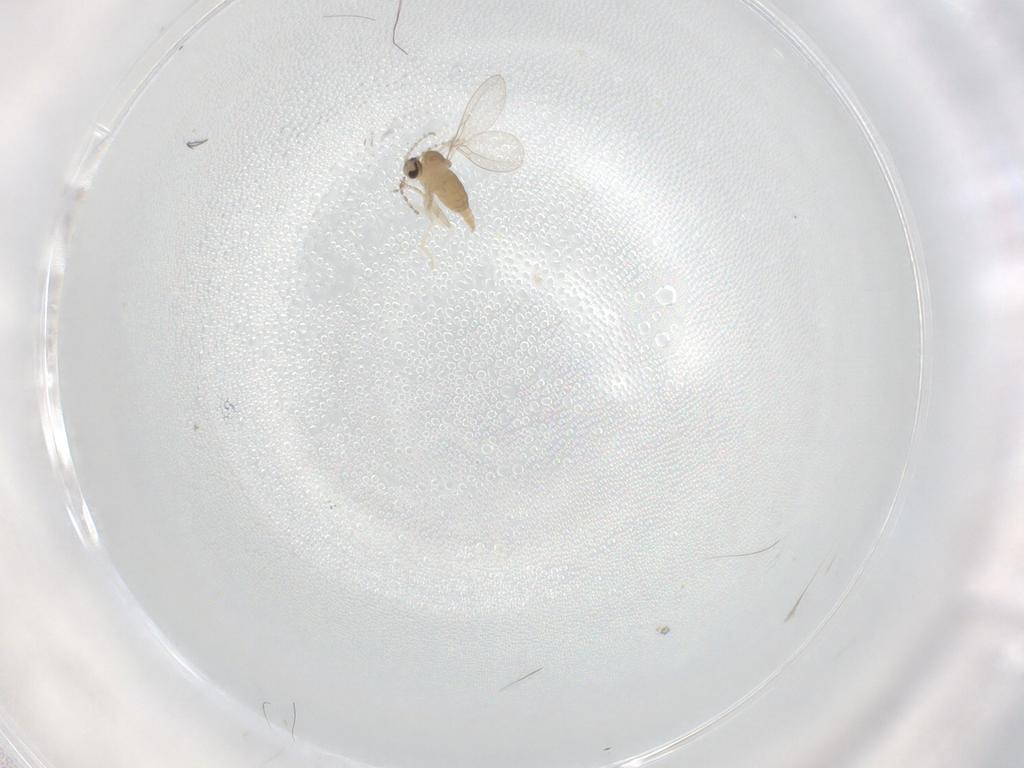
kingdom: Animalia
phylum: Arthropoda
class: Insecta
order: Diptera
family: Cecidomyiidae
